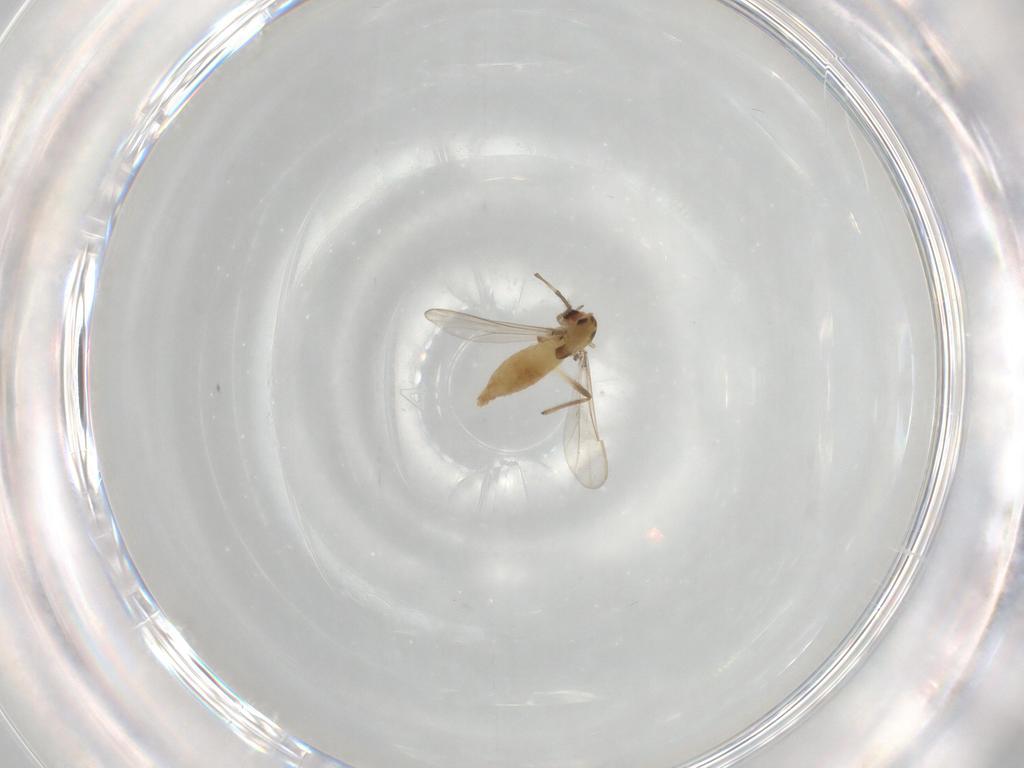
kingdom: Animalia
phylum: Arthropoda
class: Insecta
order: Diptera
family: Chironomidae
